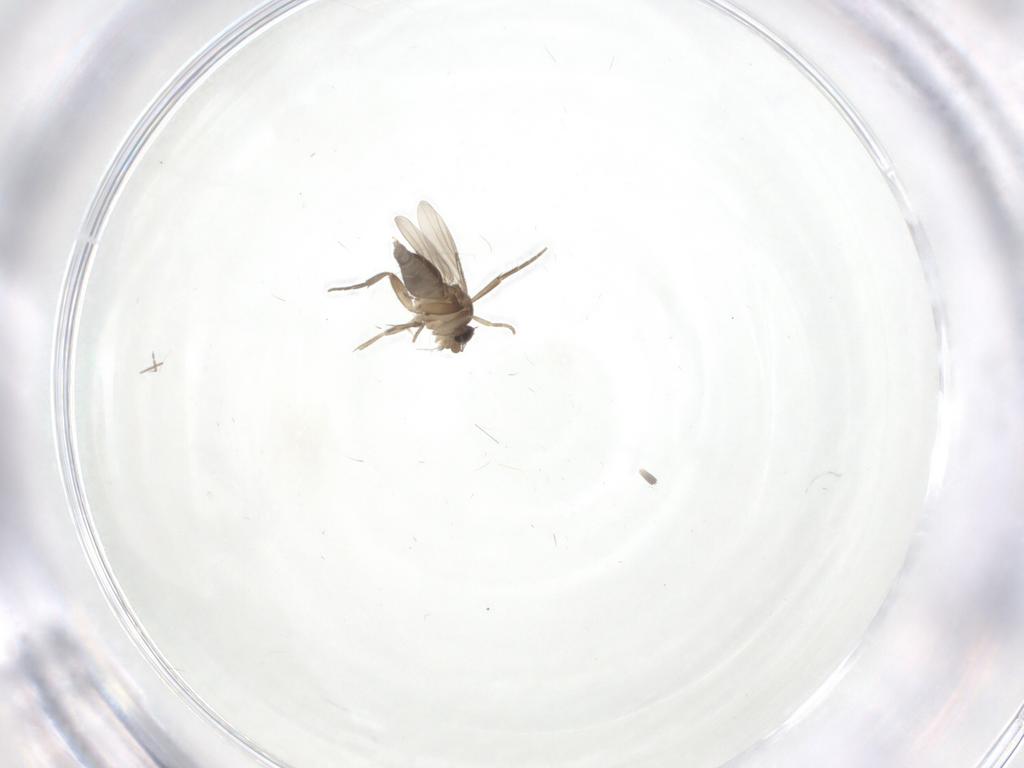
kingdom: Animalia
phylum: Arthropoda
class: Insecta
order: Diptera
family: Phoridae
